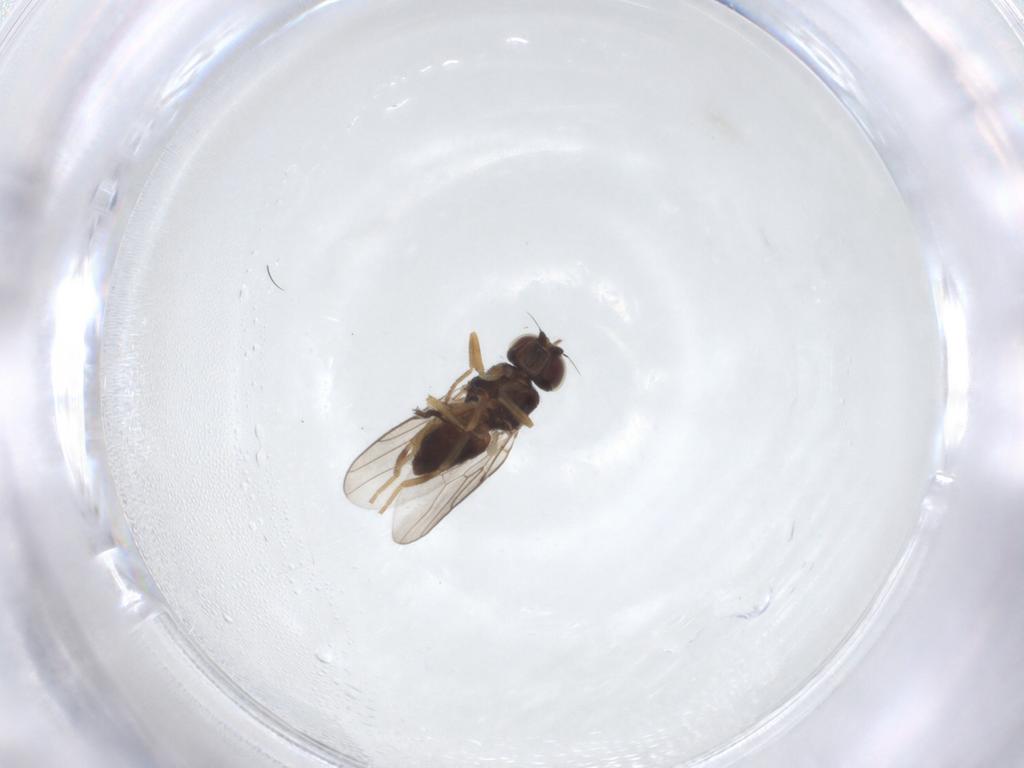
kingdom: Animalia
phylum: Arthropoda
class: Insecta
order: Diptera
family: Chloropidae
